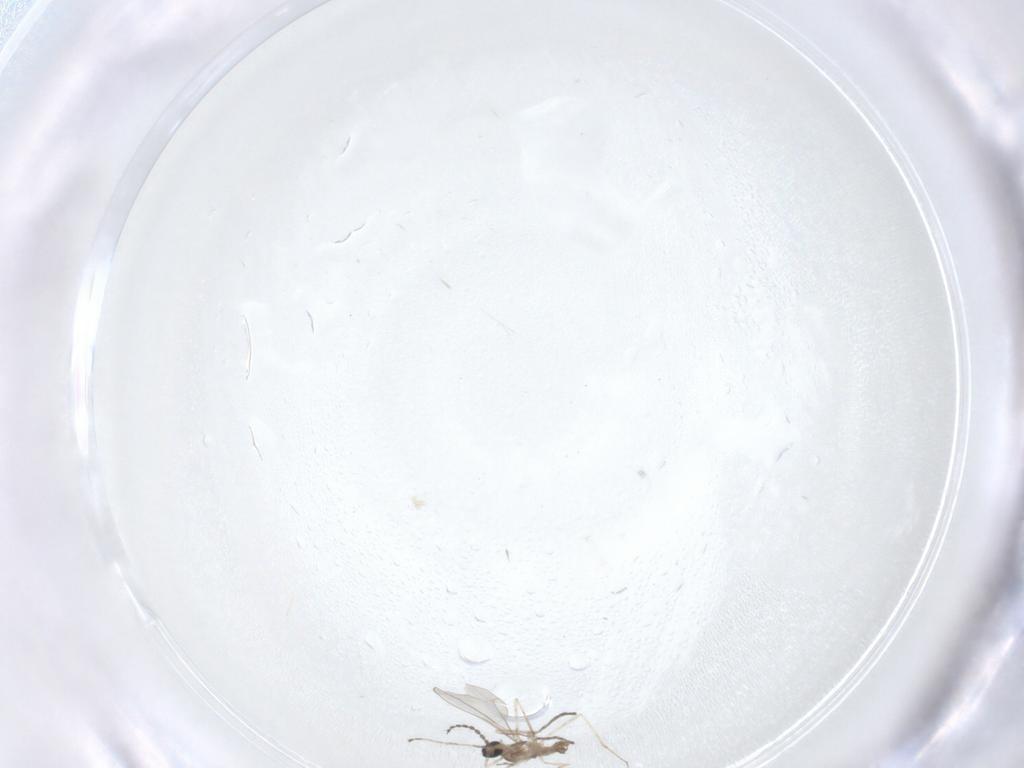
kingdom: Animalia
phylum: Arthropoda
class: Insecta
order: Diptera
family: Cecidomyiidae
